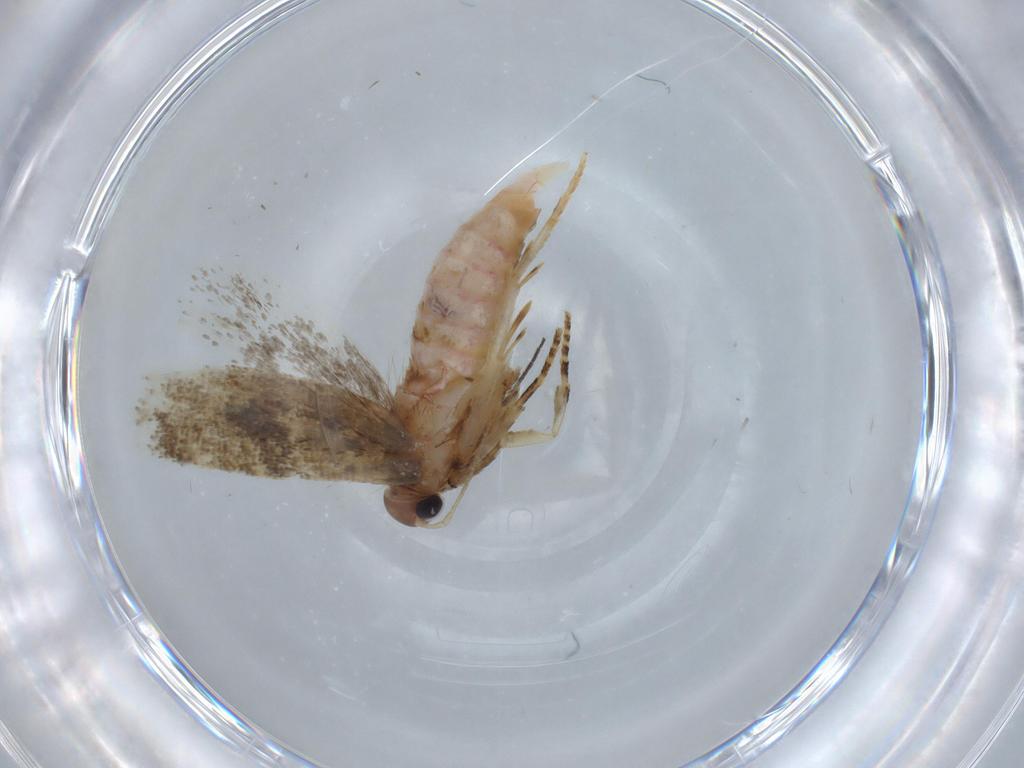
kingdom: Animalia
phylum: Arthropoda
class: Insecta
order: Lepidoptera
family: Gelechiidae
